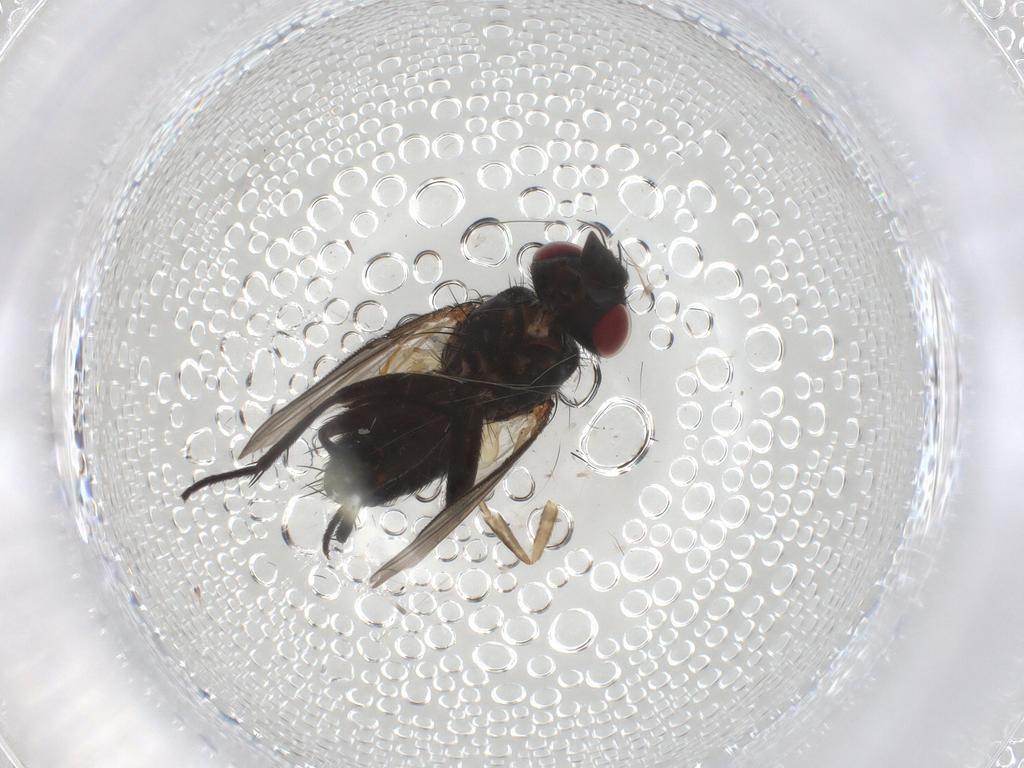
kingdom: Animalia
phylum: Arthropoda
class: Insecta
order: Diptera
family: Tachinidae
